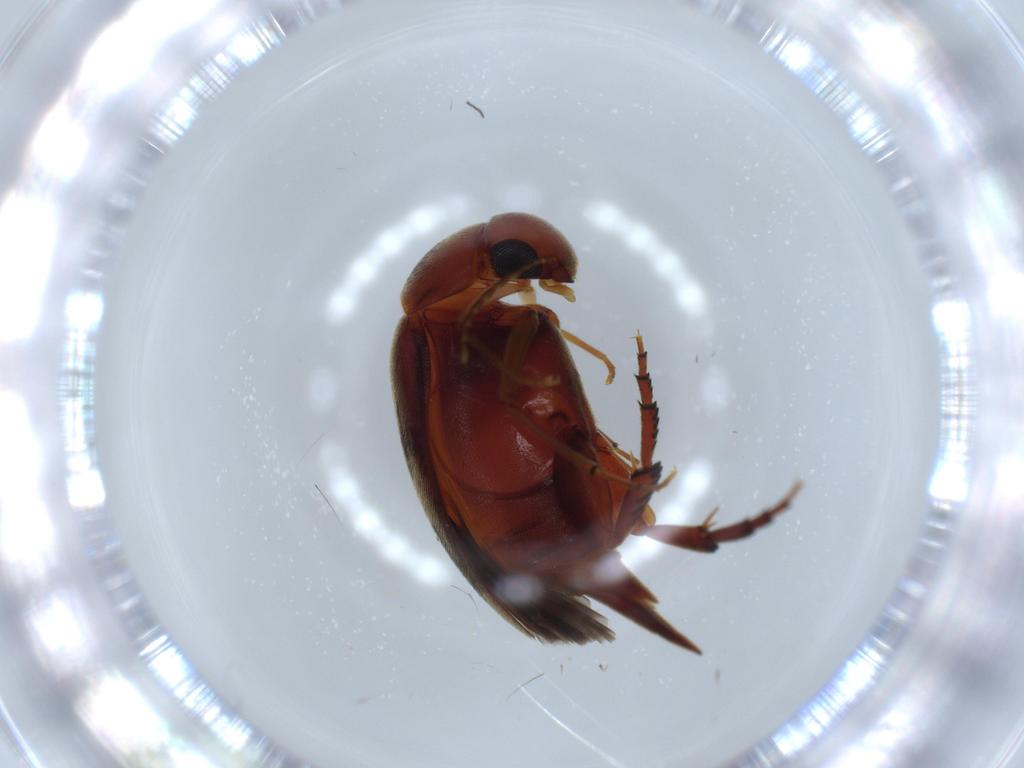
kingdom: Animalia
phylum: Arthropoda
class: Insecta
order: Coleoptera
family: Mordellidae
